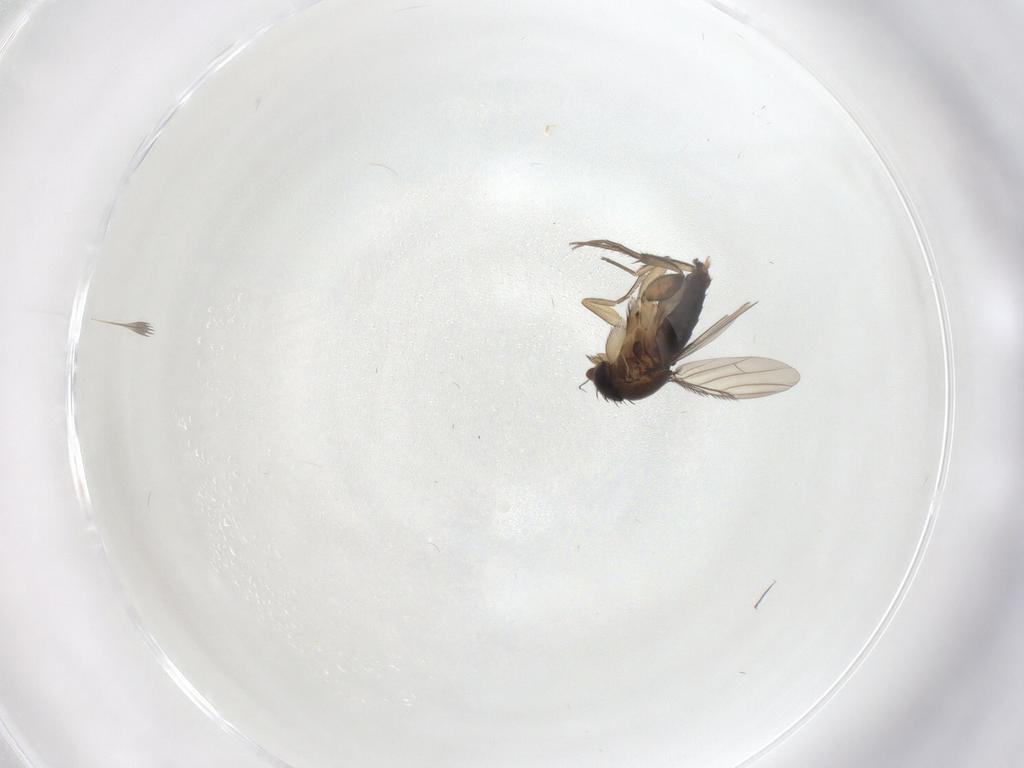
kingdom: Animalia
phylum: Arthropoda
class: Insecta
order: Diptera
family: Phoridae
